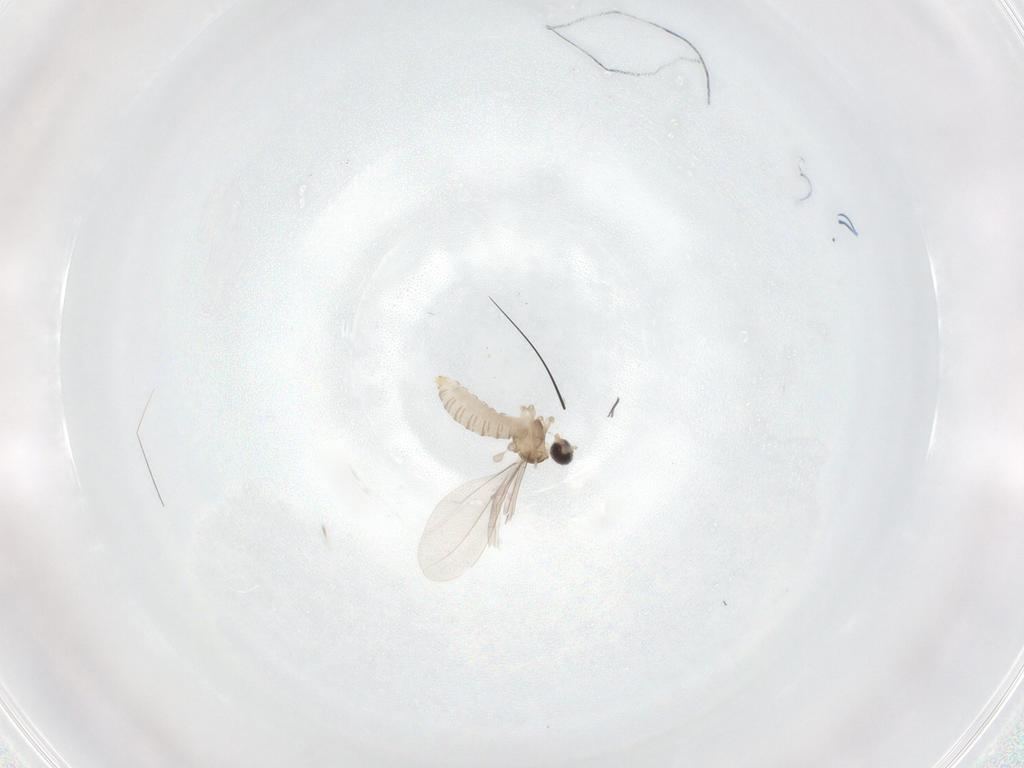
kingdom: Animalia
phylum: Arthropoda
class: Insecta
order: Diptera
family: Cecidomyiidae
